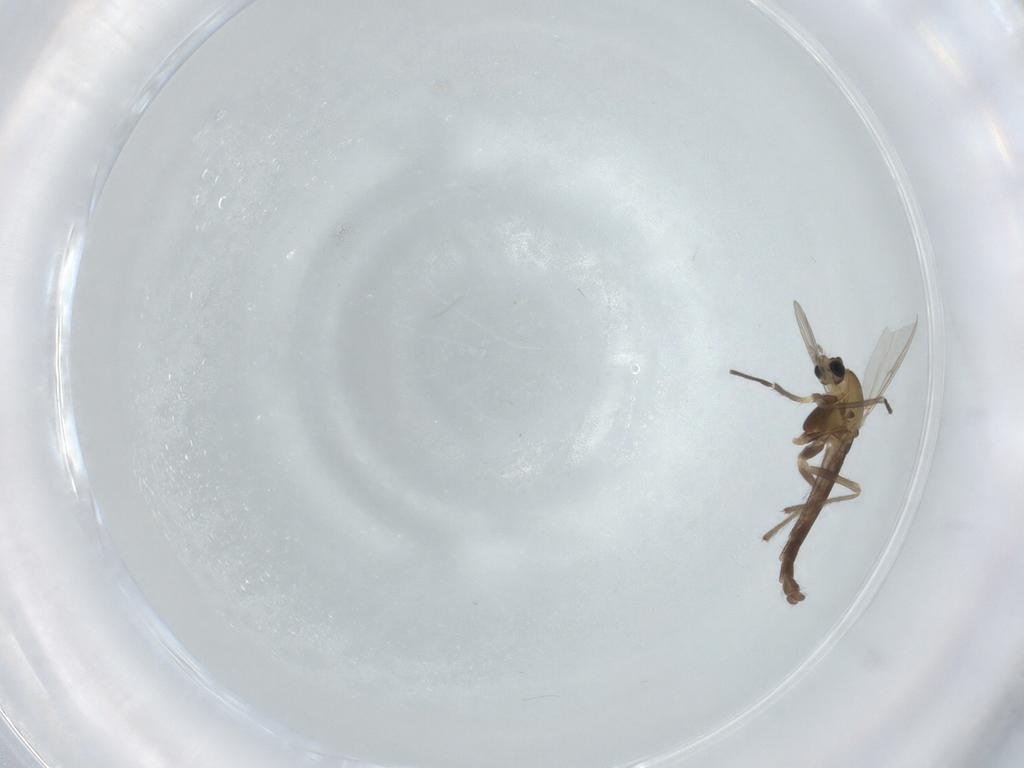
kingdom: Animalia
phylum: Arthropoda
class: Insecta
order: Diptera
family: Chironomidae
